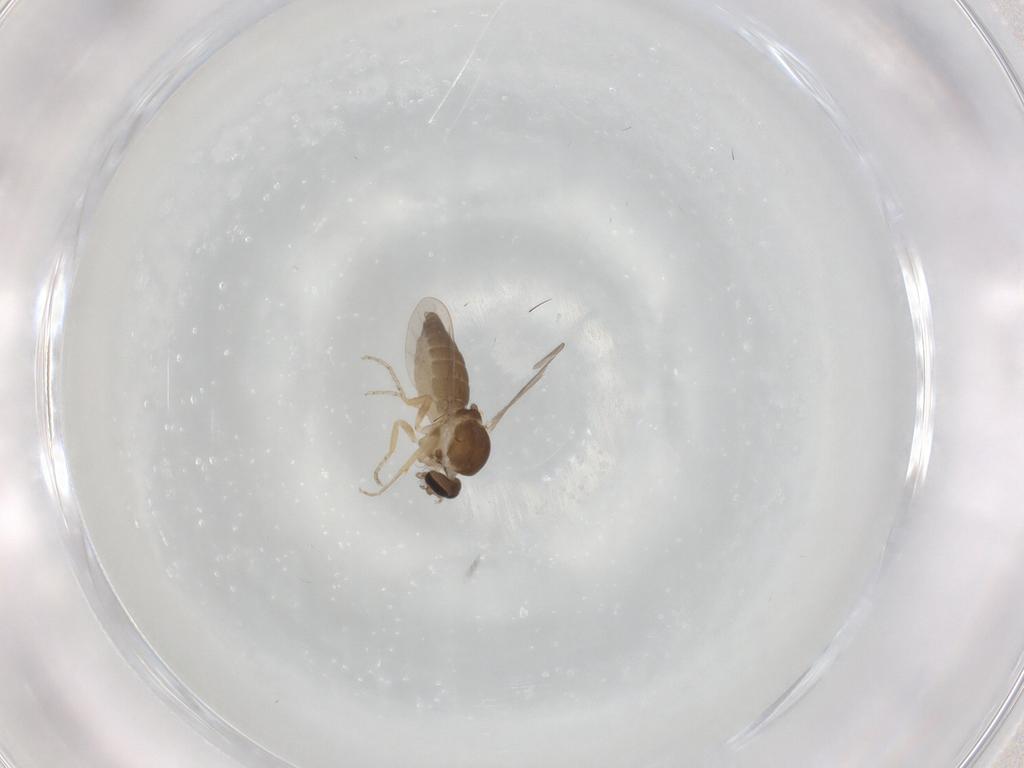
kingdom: Animalia
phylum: Arthropoda
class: Insecta
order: Diptera
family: Ceratopogonidae
